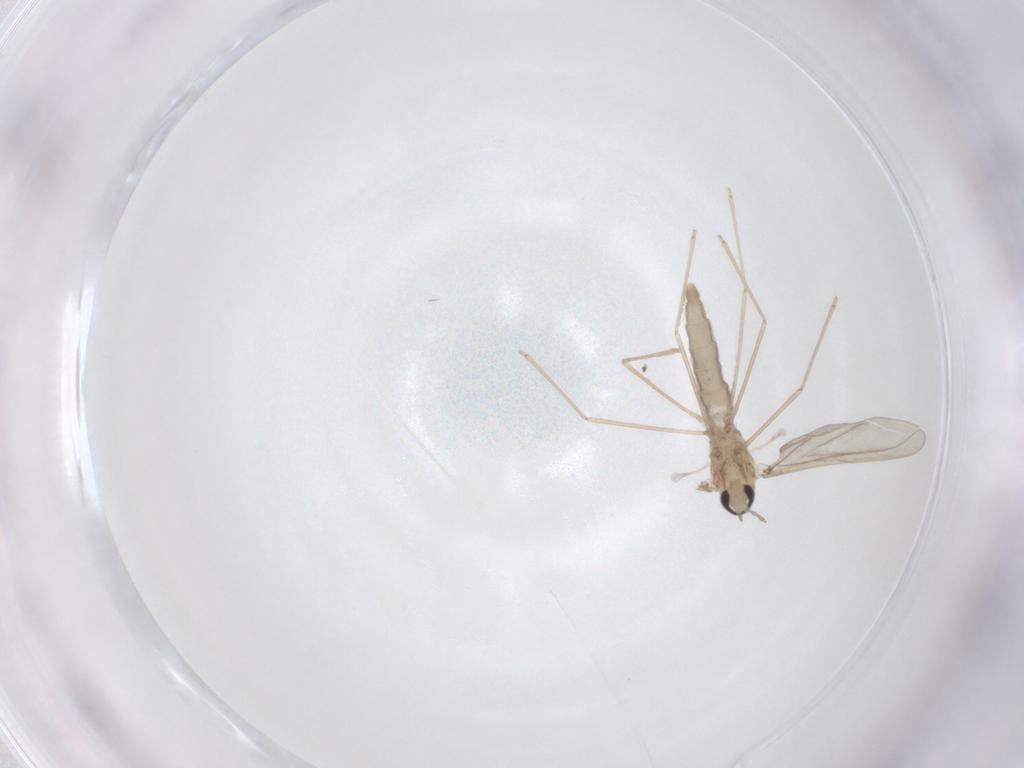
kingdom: Animalia
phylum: Arthropoda
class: Insecta
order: Diptera
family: Cecidomyiidae
